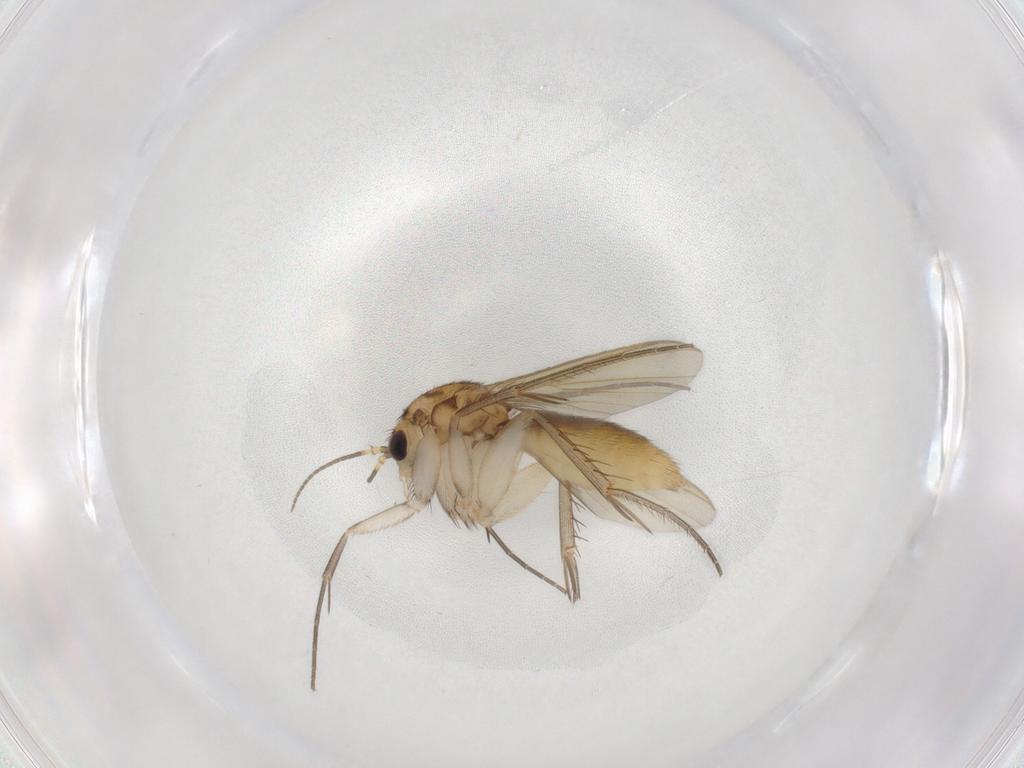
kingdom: Animalia
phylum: Arthropoda
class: Insecta
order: Diptera
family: Mycetophilidae
